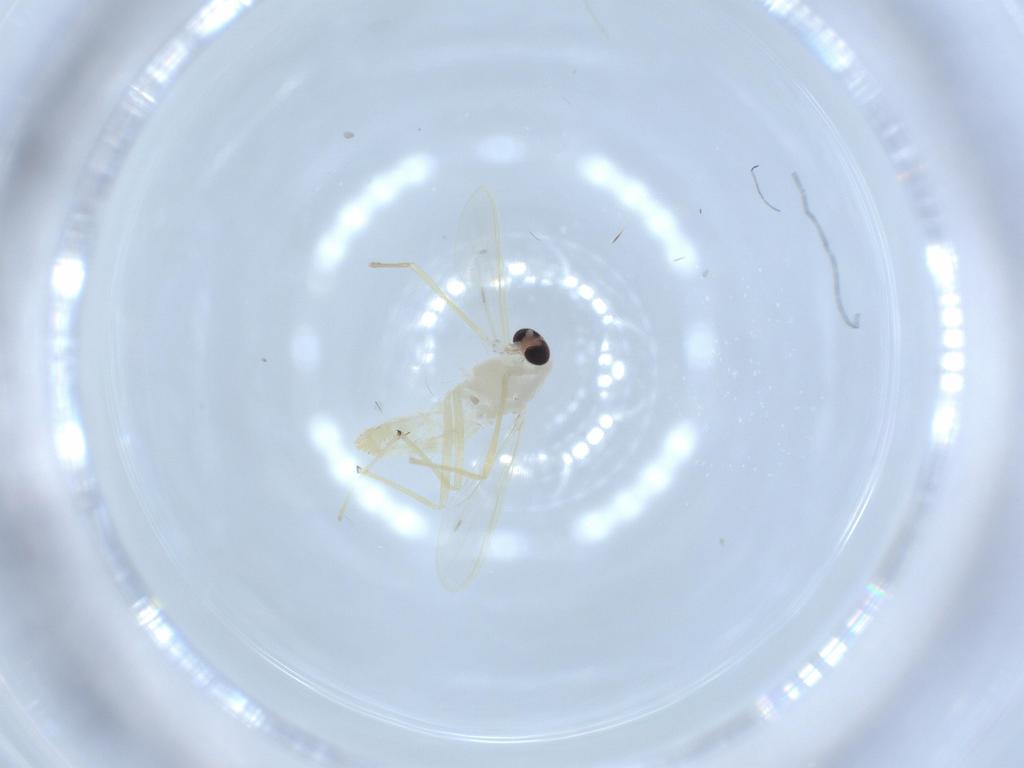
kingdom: Animalia
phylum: Arthropoda
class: Insecta
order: Diptera
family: Chironomidae
